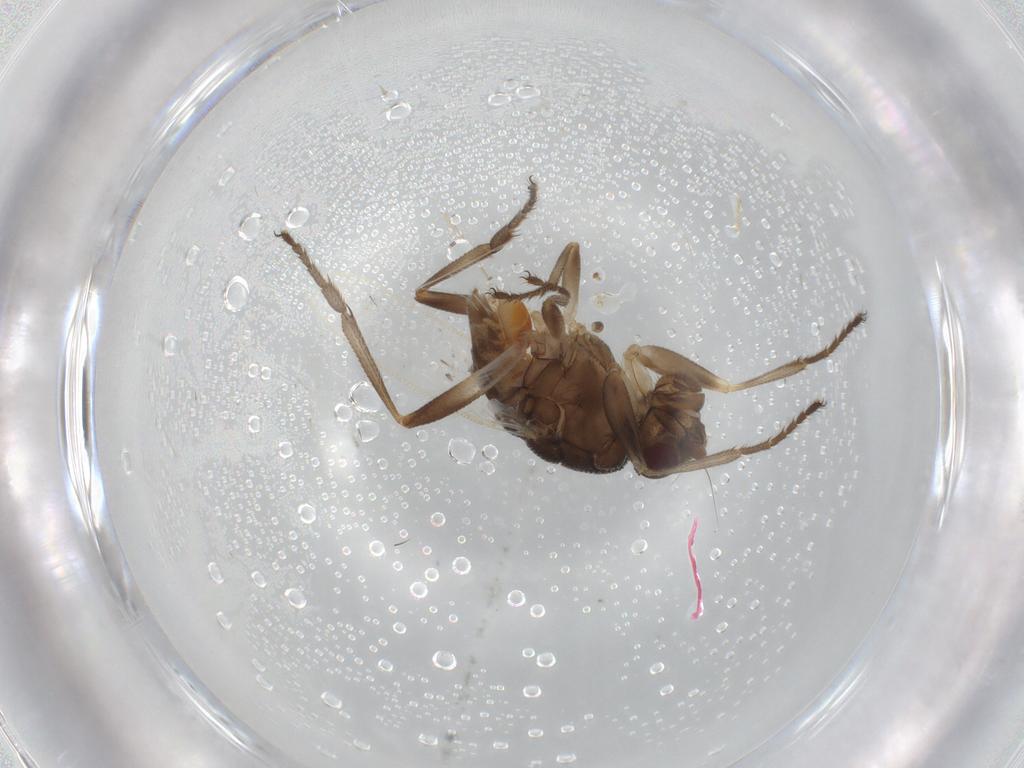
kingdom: Animalia
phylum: Arthropoda
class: Insecta
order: Diptera
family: Sphaeroceridae
